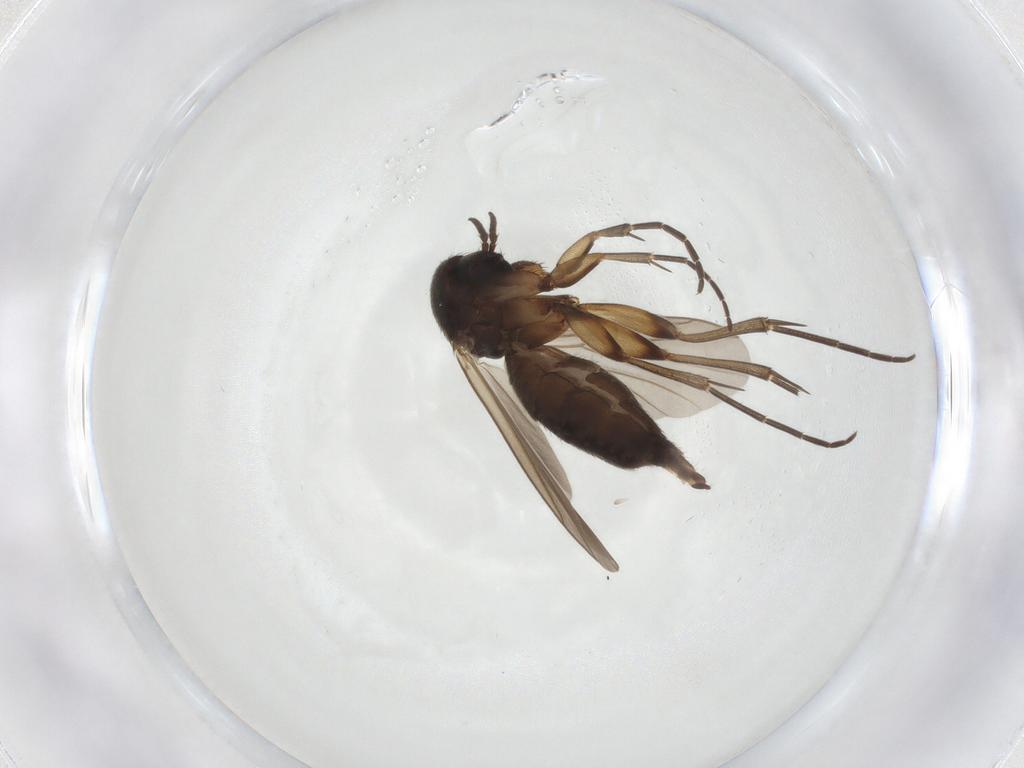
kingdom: Animalia
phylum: Arthropoda
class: Insecta
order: Diptera
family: Mycetophilidae
